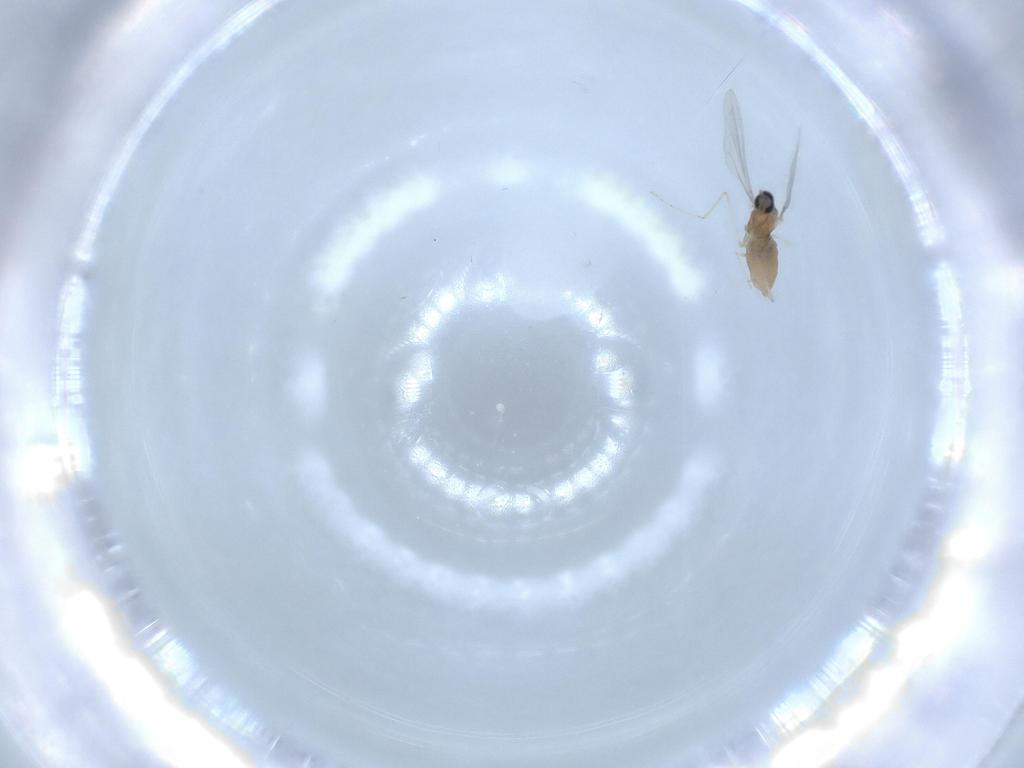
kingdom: Animalia
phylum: Arthropoda
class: Insecta
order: Diptera
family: Cecidomyiidae
